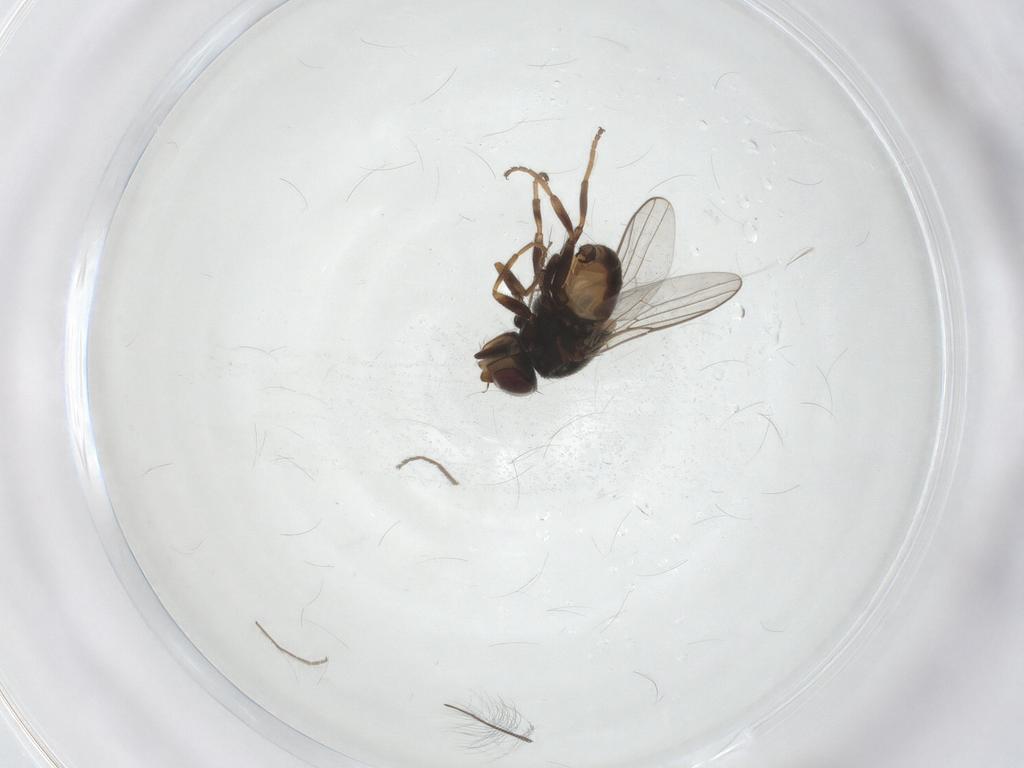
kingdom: Animalia
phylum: Arthropoda
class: Insecta
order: Diptera
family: Chloropidae
